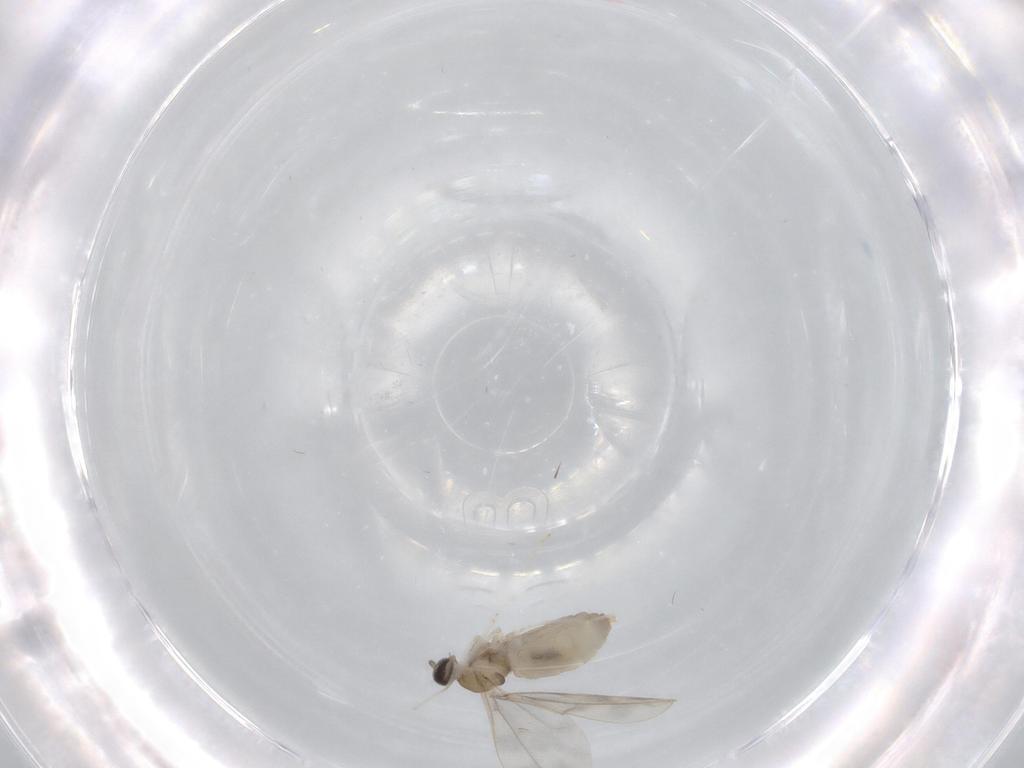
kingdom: Animalia
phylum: Arthropoda
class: Insecta
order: Diptera
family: Cecidomyiidae
